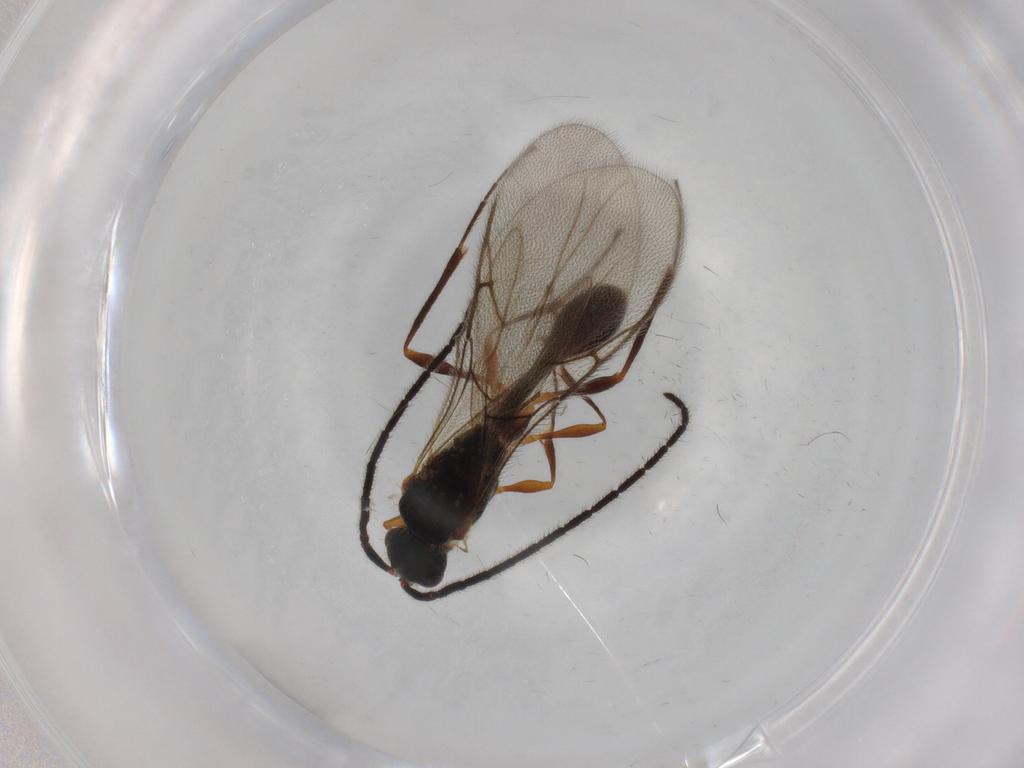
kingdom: Animalia
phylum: Arthropoda
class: Insecta
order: Hymenoptera
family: Diapriidae
